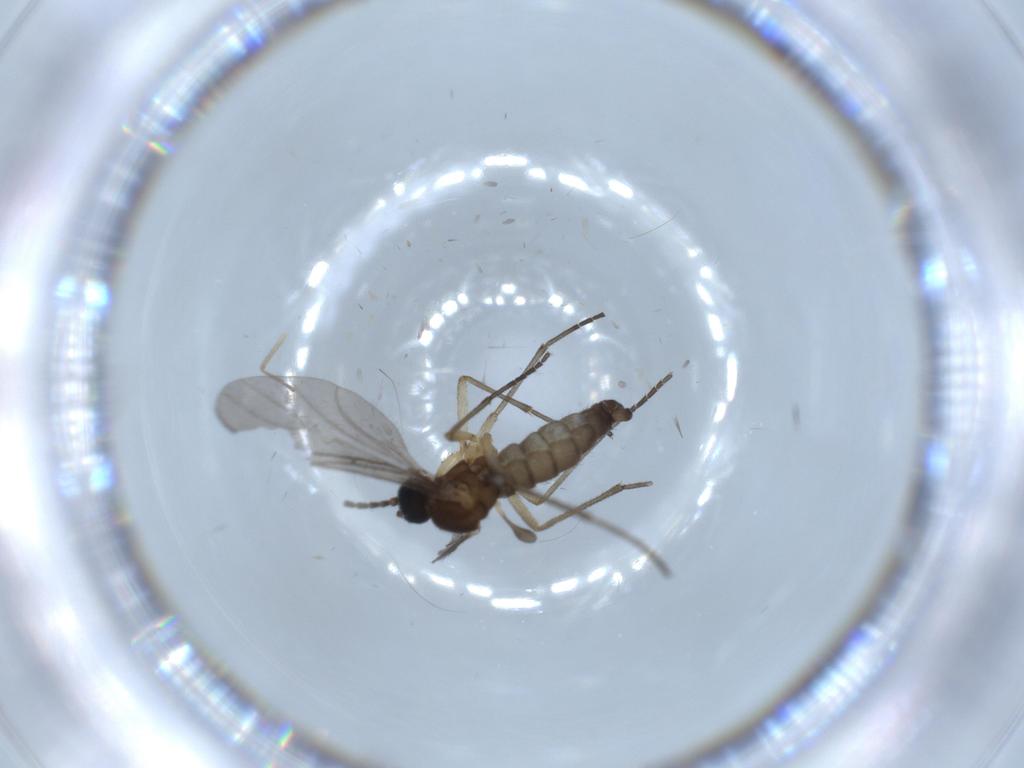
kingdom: Animalia
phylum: Arthropoda
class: Insecta
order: Diptera
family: Sciaridae
